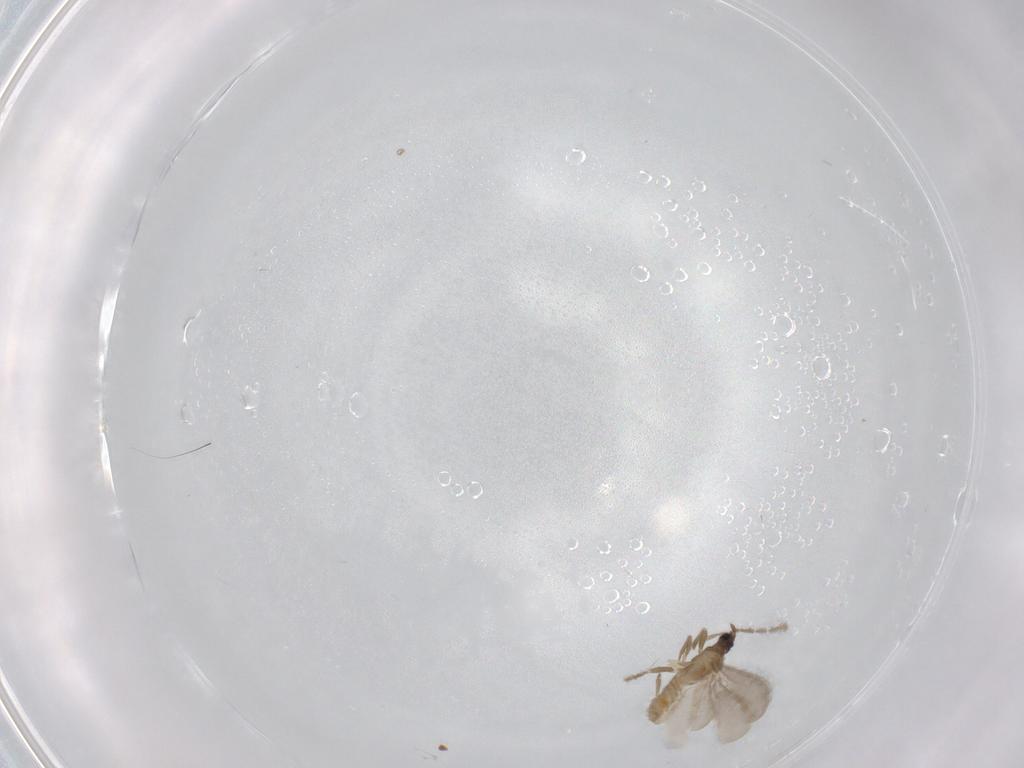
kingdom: Animalia
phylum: Arthropoda
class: Insecta
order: Hemiptera
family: Enicocephalidae
